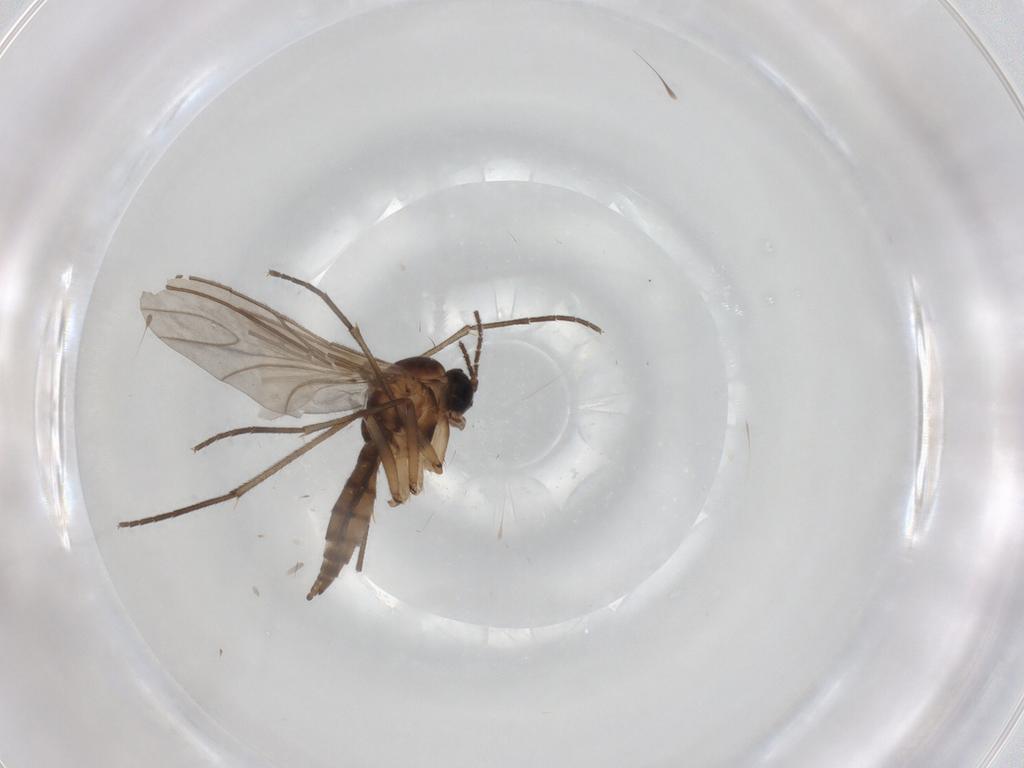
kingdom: Animalia
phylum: Arthropoda
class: Insecta
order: Diptera
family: Sciaridae
